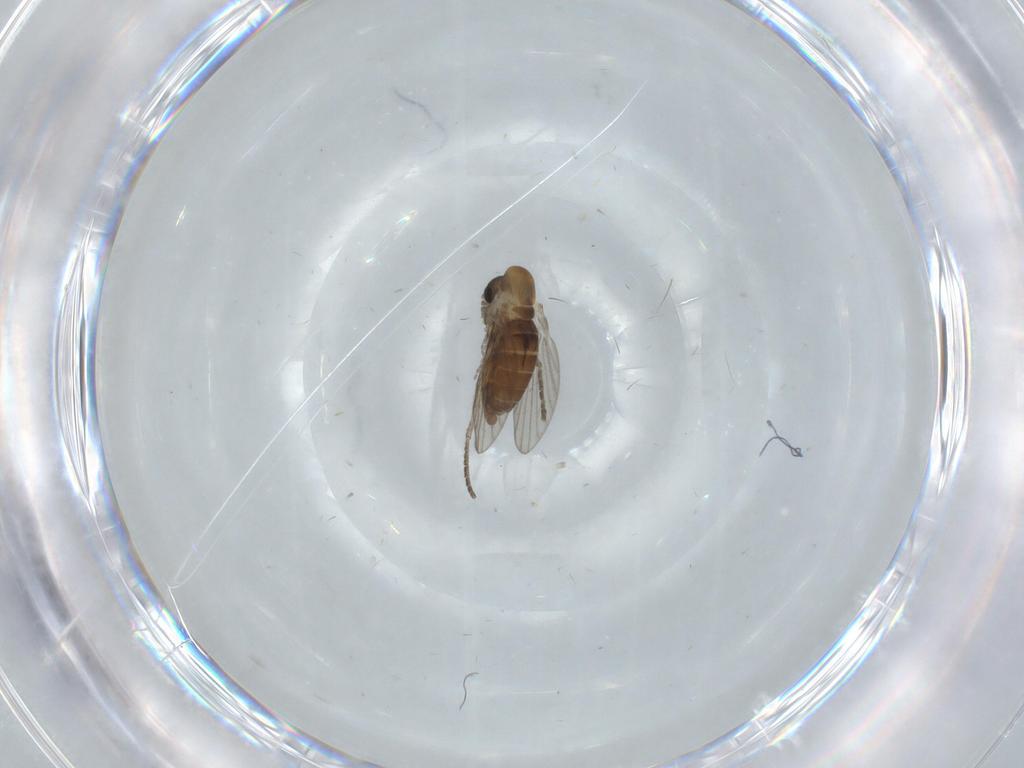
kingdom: Animalia
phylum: Arthropoda
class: Insecta
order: Diptera
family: Psychodidae
